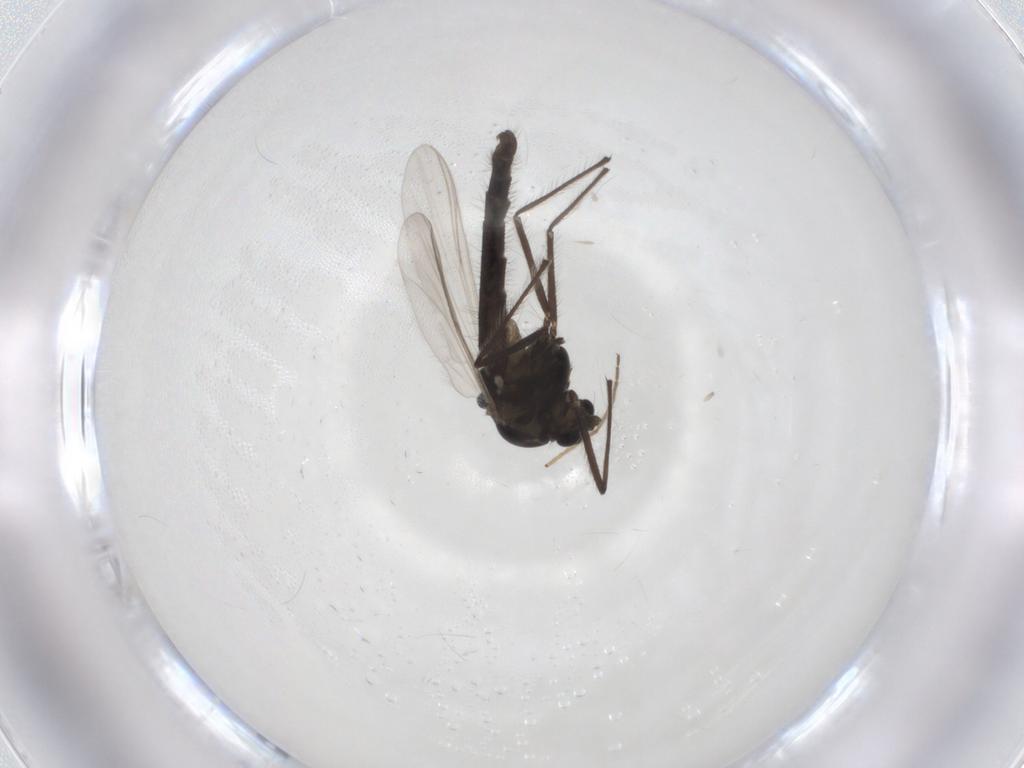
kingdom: Animalia
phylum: Arthropoda
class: Insecta
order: Diptera
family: Chironomidae
